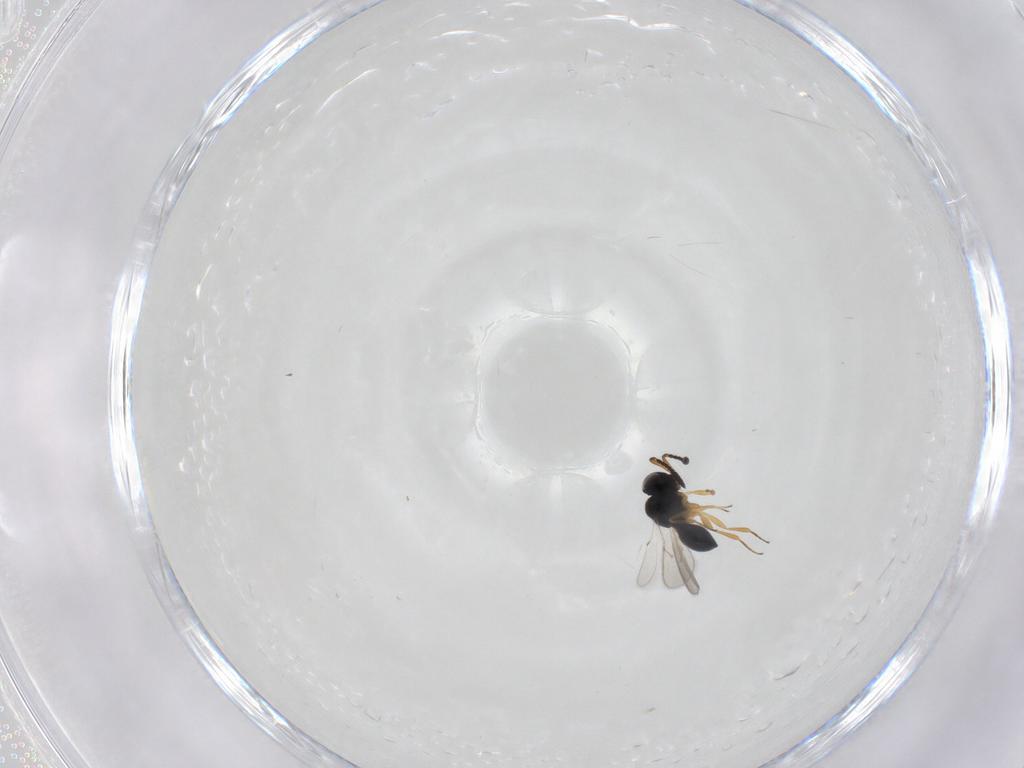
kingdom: Animalia
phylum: Arthropoda
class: Insecta
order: Hymenoptera
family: Scelionidae
